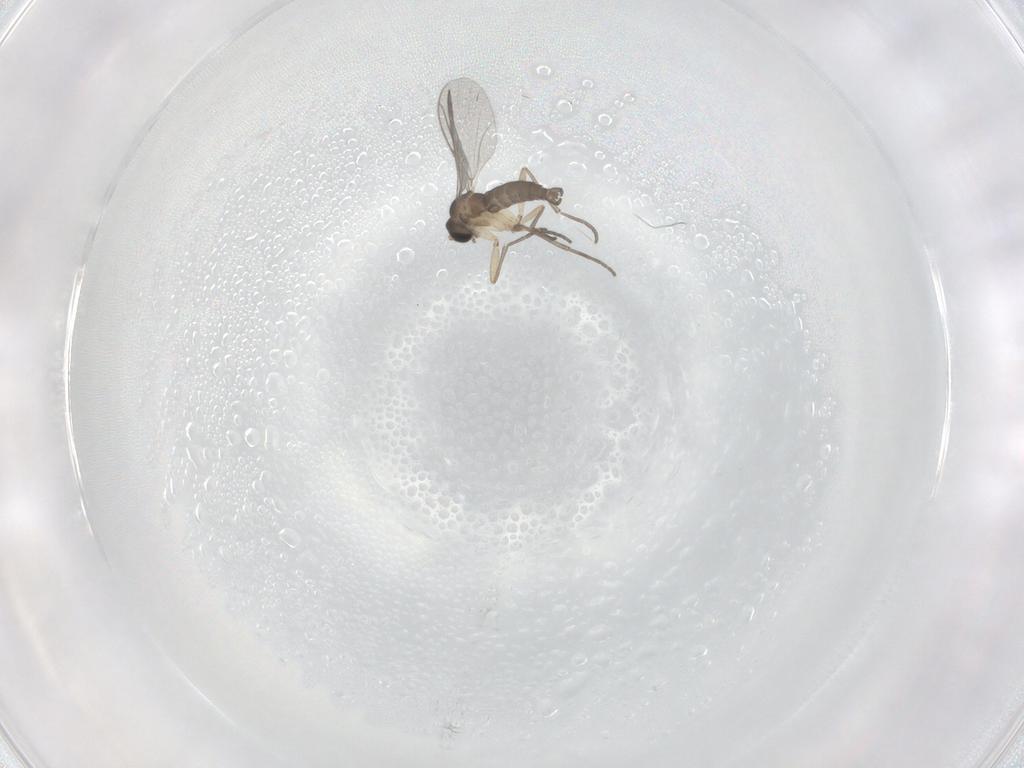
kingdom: Animalia
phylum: Arthropoda
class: Insecta
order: Diptera
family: Sciaridae
